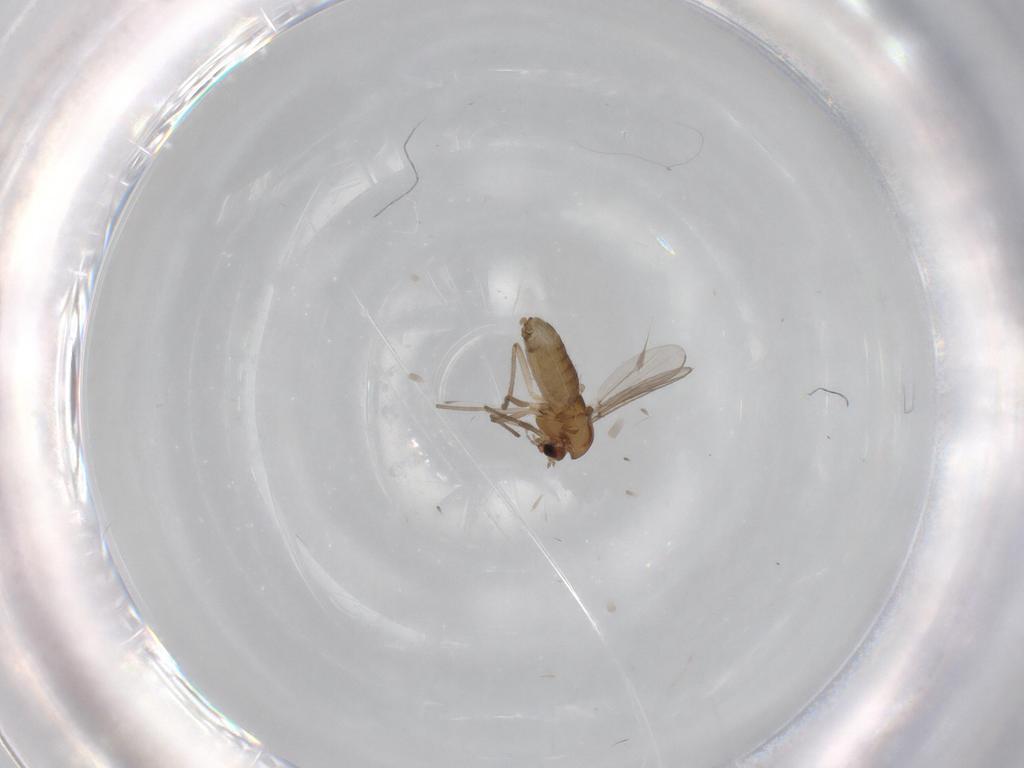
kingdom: Animalia
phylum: Arthropoda
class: Insecta
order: Diptera
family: Chironomidae
